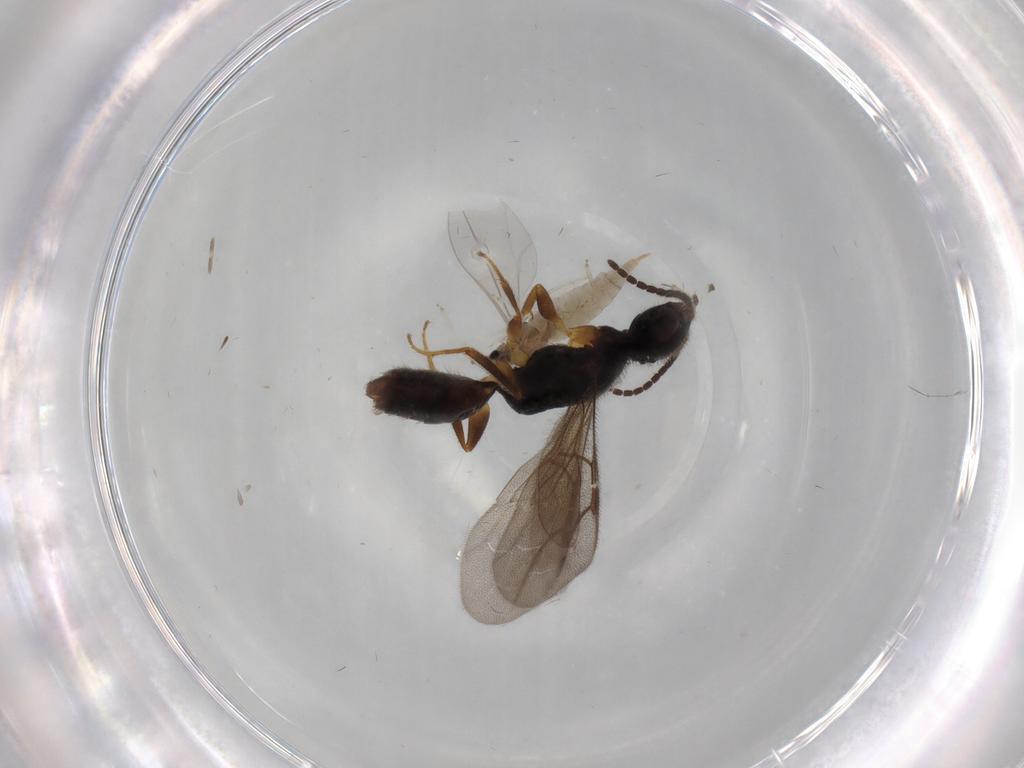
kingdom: Animalia
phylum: Arthropoda
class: Insecta
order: Diptera
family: Cecidomyiidae
